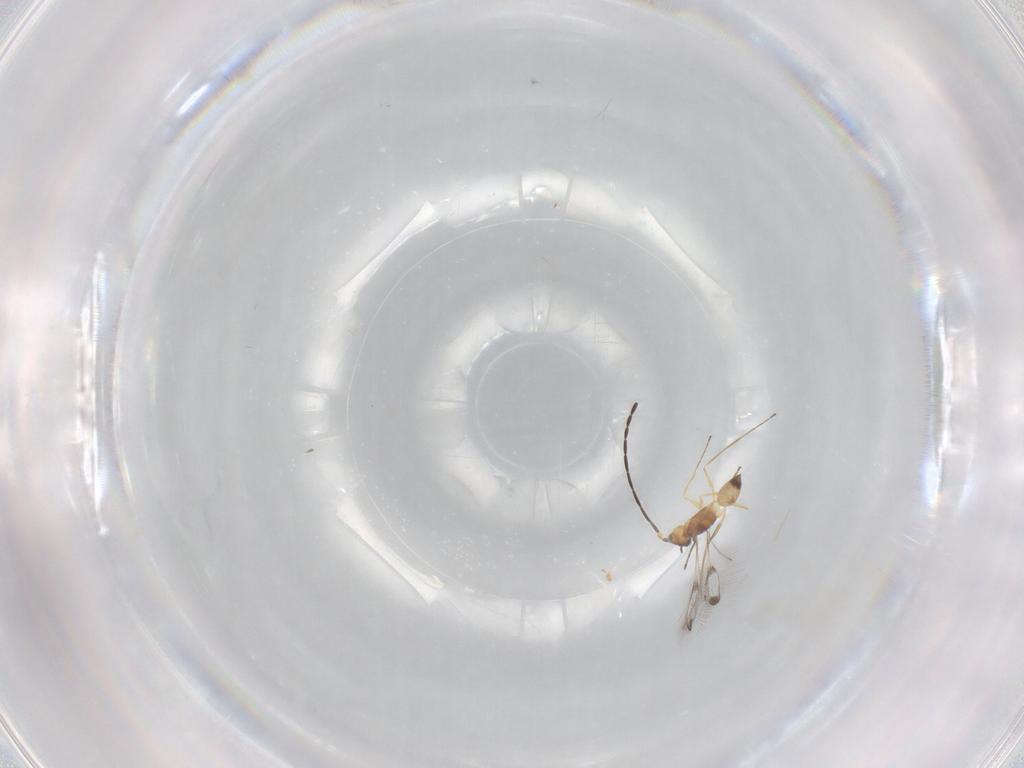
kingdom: Animalia
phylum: Arthropoda
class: Insecta
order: Hymenoptera
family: Mymaridae
